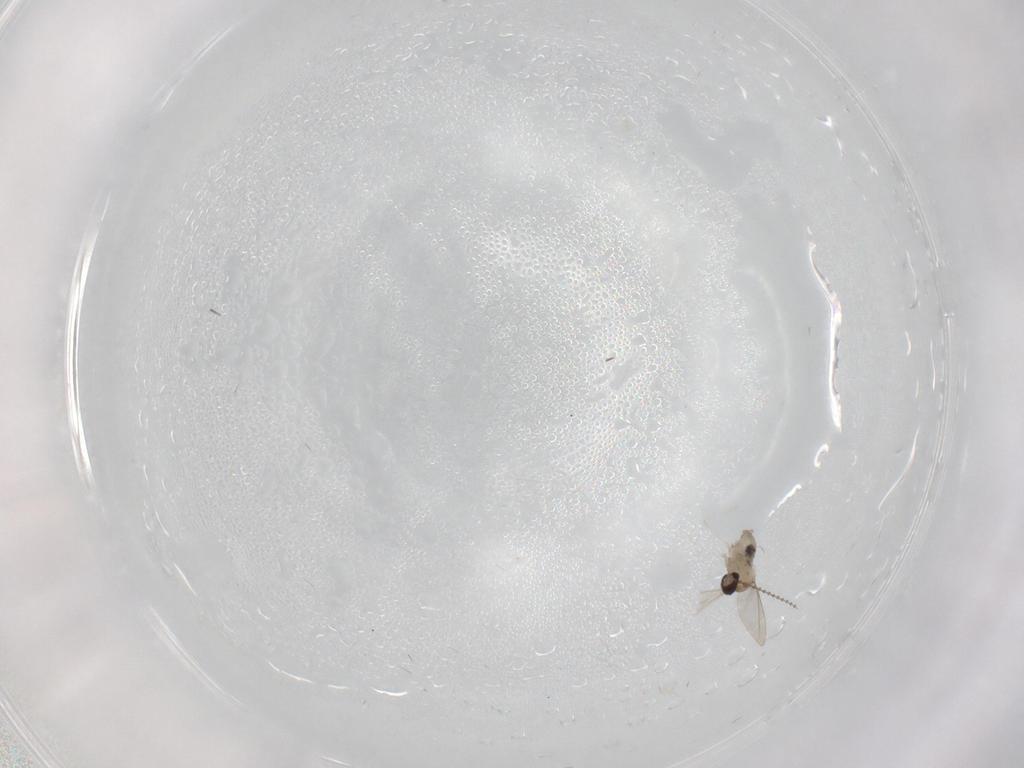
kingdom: Animalia
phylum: Arthropoda
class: Insecta
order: Diptera
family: Cecidomyiidae
